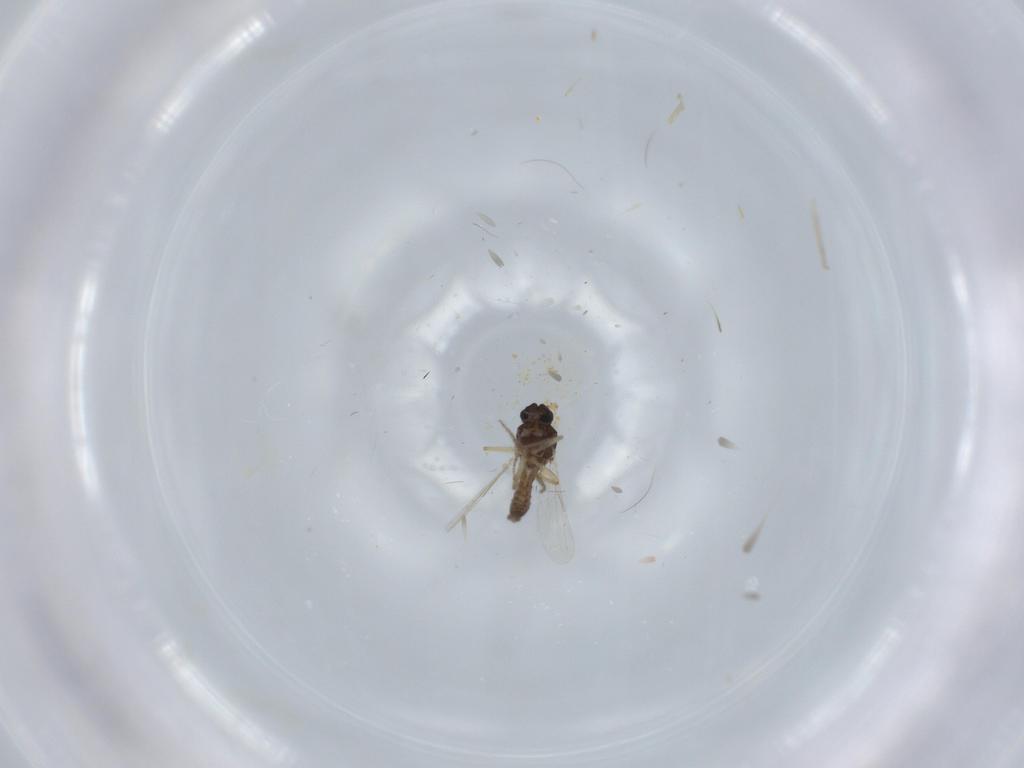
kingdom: Animalia
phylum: Arthropoda
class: Insecta
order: Diptera
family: Ceratopogonidae
